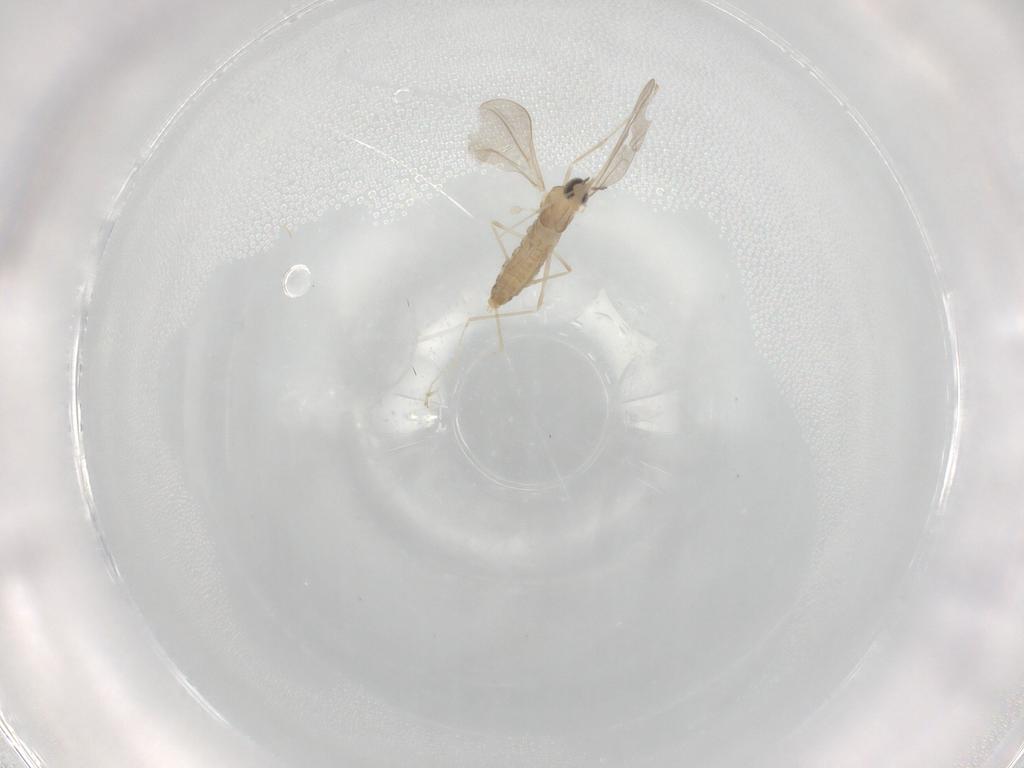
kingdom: Animalia
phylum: Arthropoda
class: Insecta
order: Diptera
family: Cecidomyiidae
